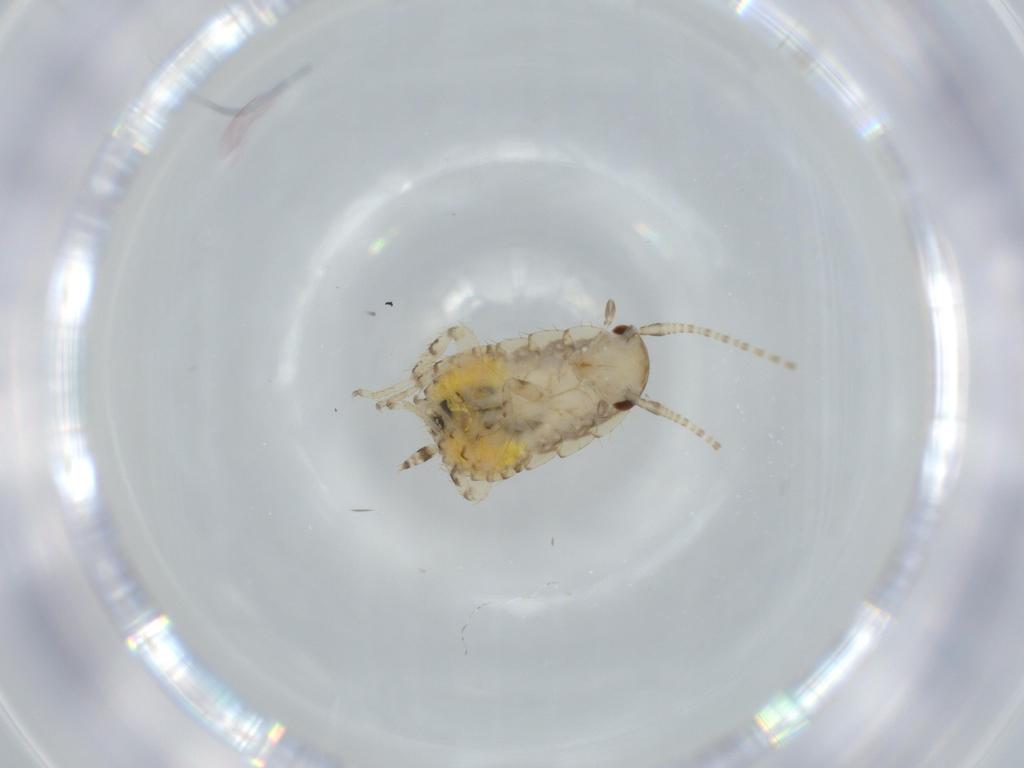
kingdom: Animalia
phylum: Arthropoda
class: Insecta
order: Blattodea
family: Ectobiidae
